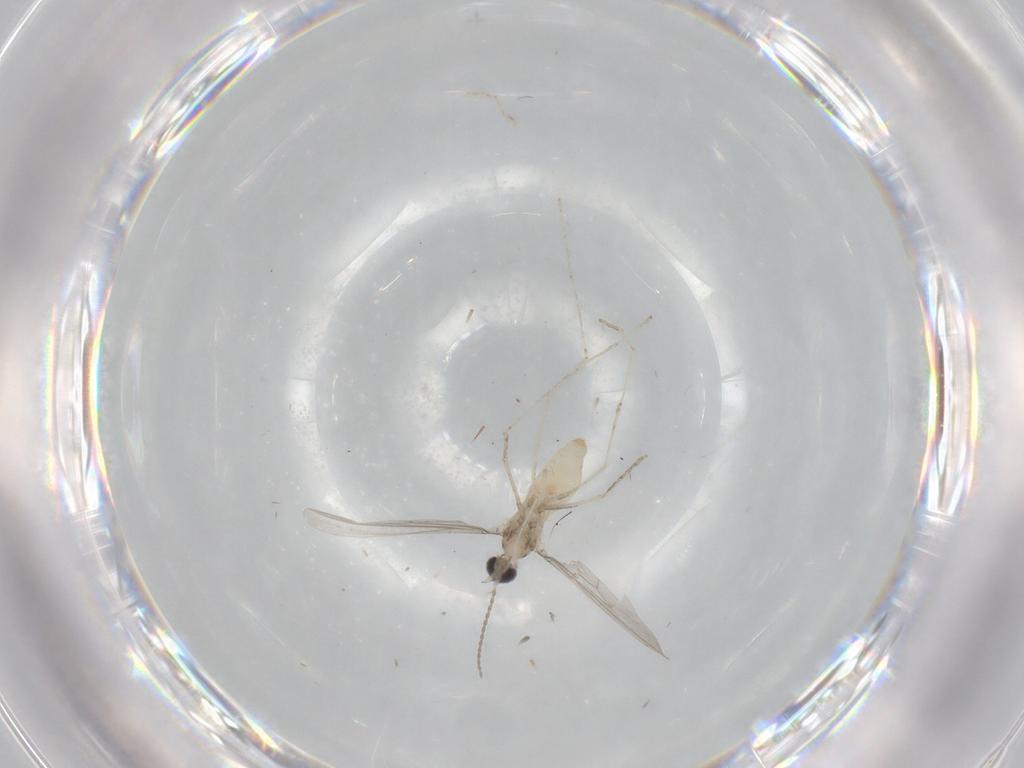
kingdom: Animalia
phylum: Arthropoda
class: Insecta
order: Diptera
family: Cecidomyiidae
